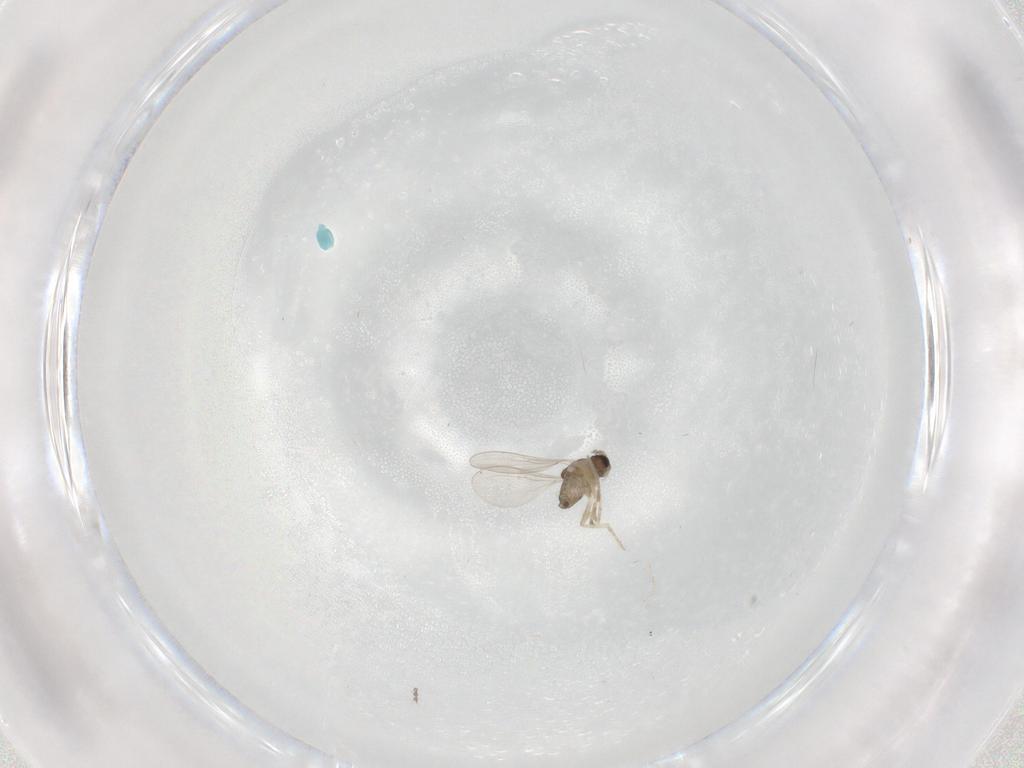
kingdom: Animalia
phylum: Arthropoda
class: Insecta
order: Diptera
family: Cecidomyiidae
